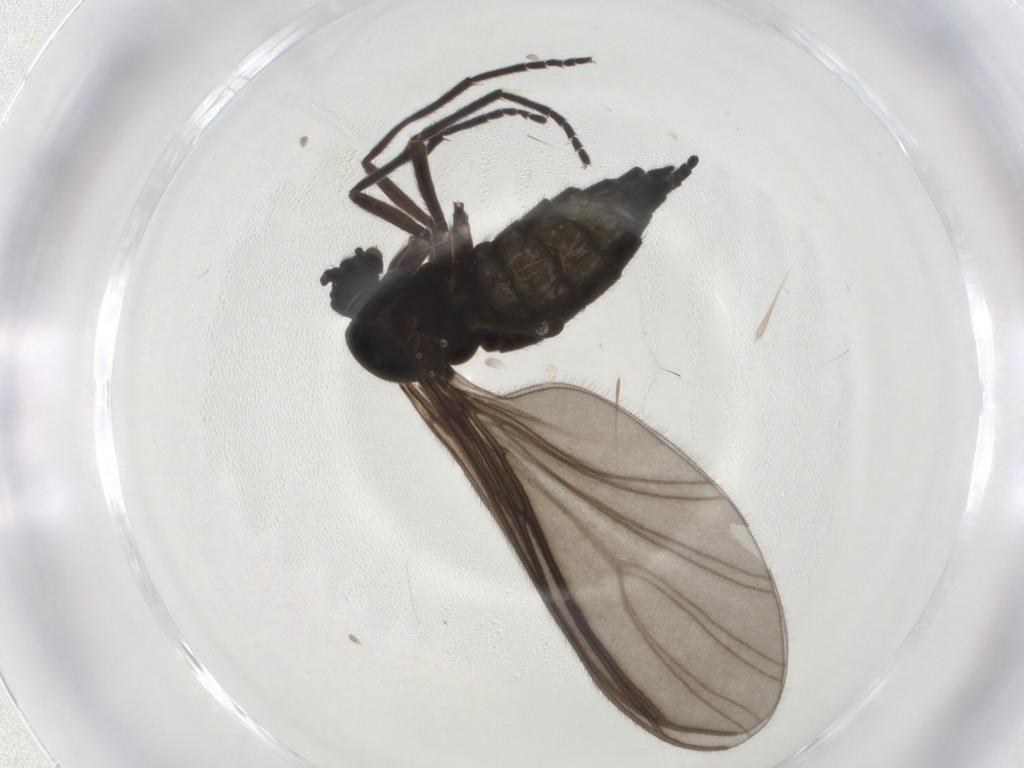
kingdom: Animalia
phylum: Arthropoda
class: Insecta
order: Diptera
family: Sciaridae
